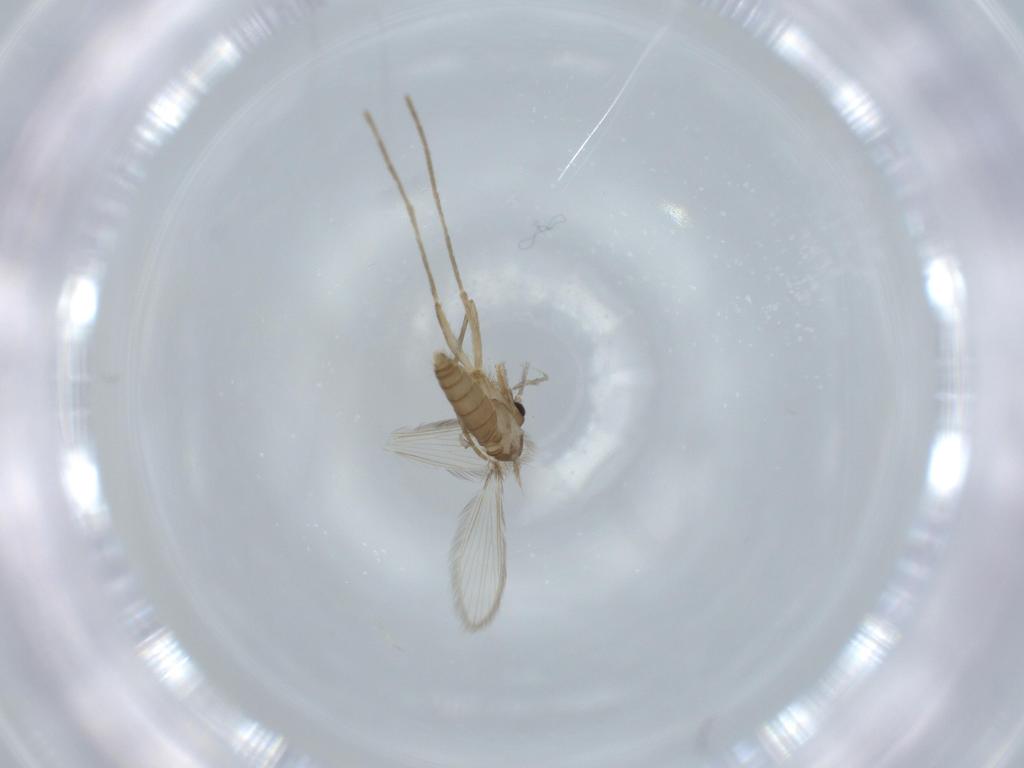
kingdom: Animalia
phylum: Arthropoda
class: Insecta
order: Diptera
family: Psychodidae
